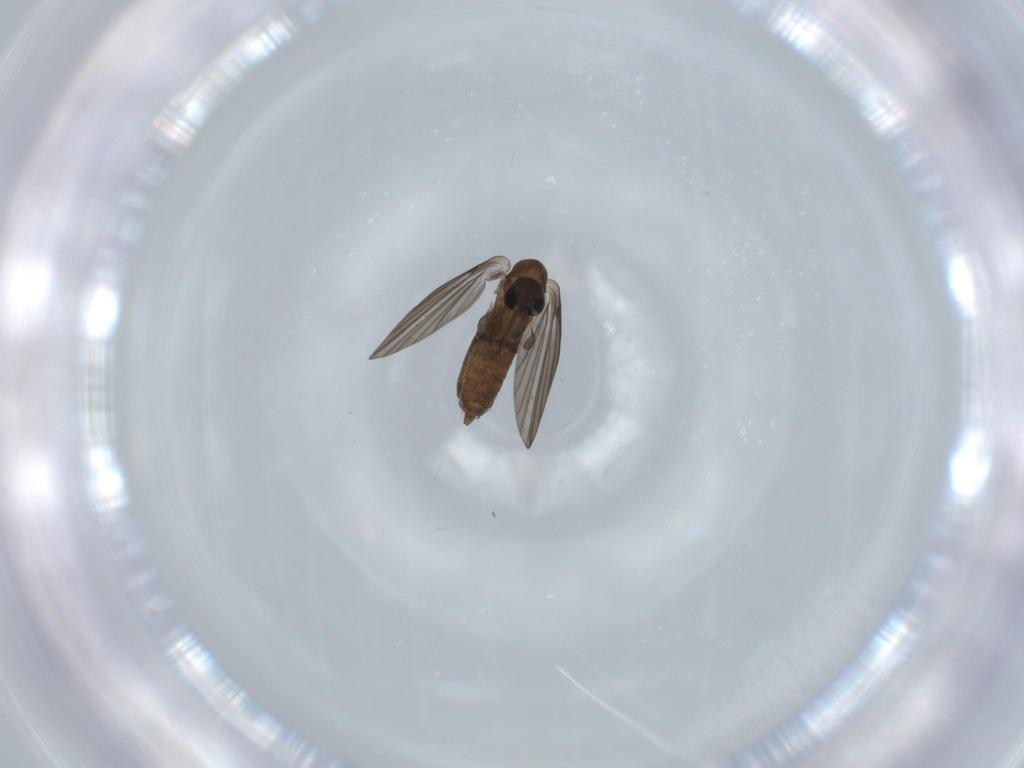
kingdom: Animalia
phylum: Arthropoda
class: Insecta
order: Diptera
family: Psychodidae
